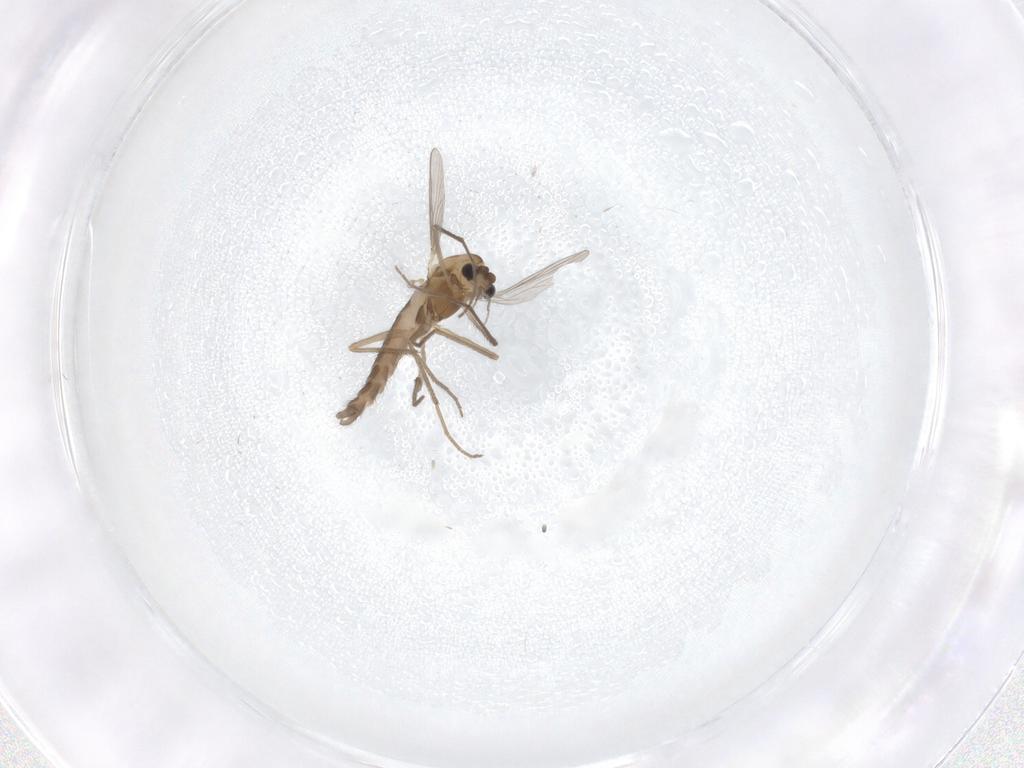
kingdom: Animalia
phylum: Arthropoda
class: Insecta
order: Diptera
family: Chironomidae
